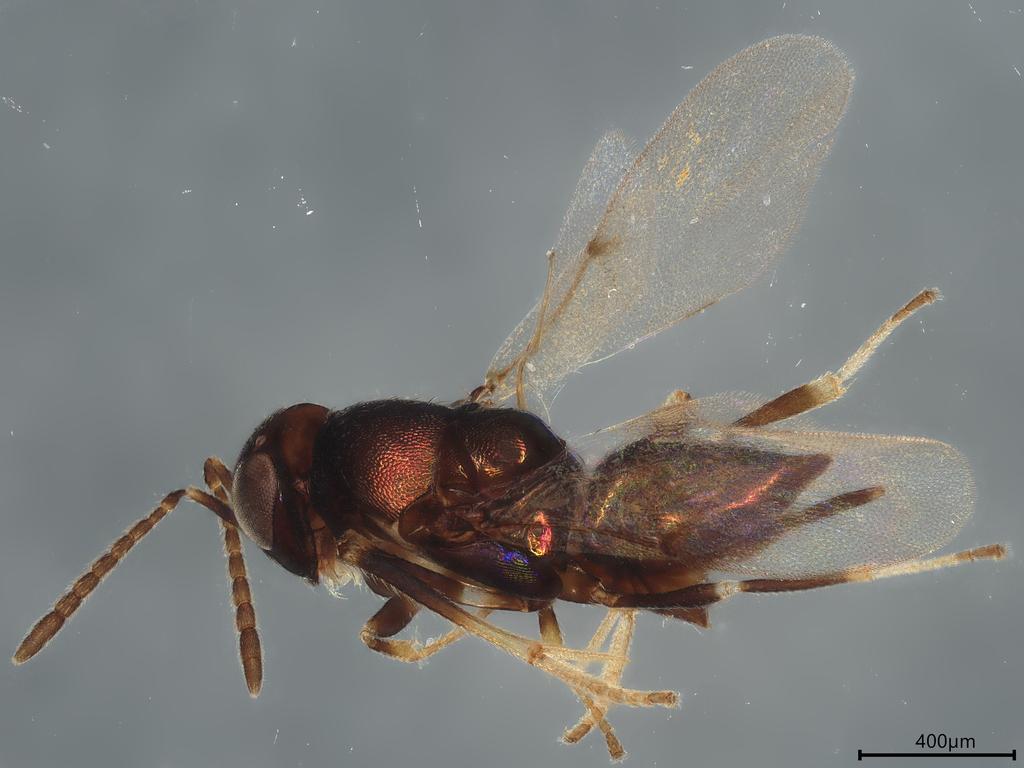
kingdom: Animalia
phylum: Arthropoda
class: Insecta
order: Hymenoptera
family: Encyrtidae
